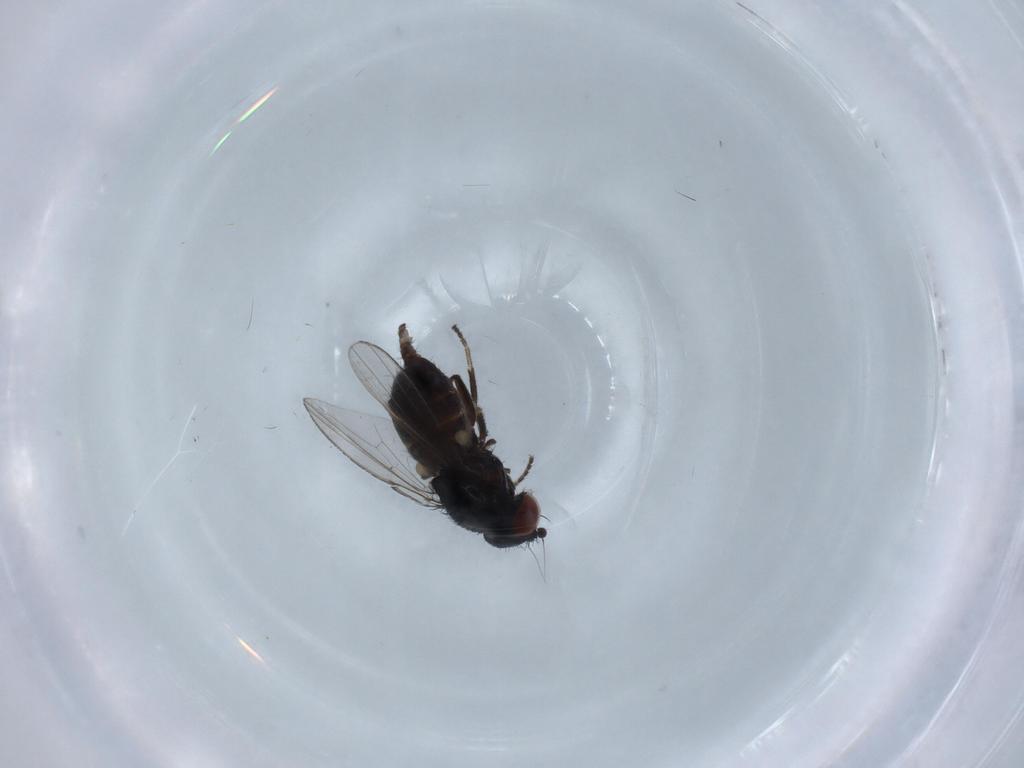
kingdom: Animalia
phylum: Arthropoda
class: Insecta
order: Diptera
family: Milichiidae
